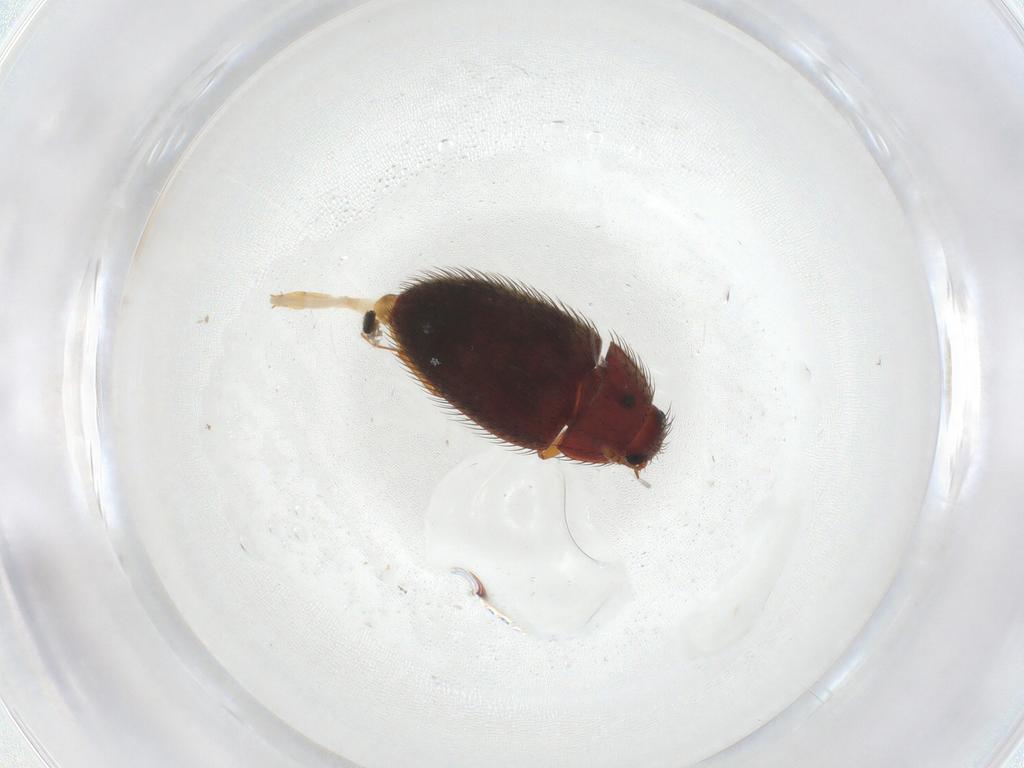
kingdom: Animalia
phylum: Arthropoda
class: Insecta
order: Coleoptera
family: Biphyllidae
